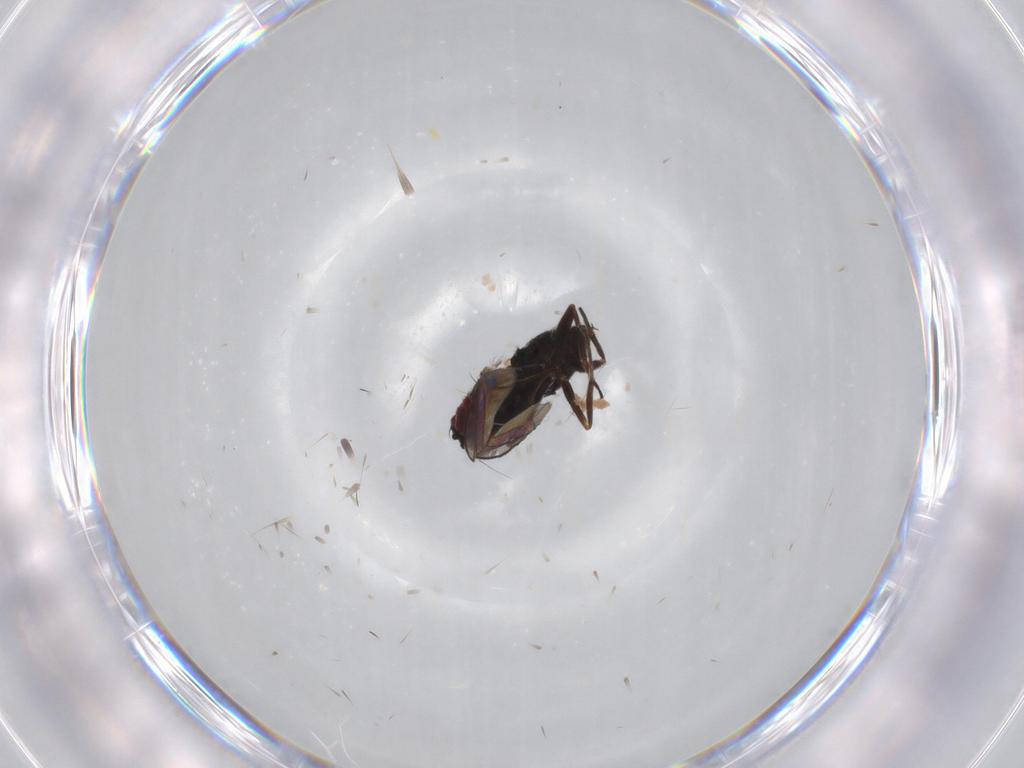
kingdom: Animalia
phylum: Arthropoda
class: Insecta
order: Diptera
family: Dolichopodidae
